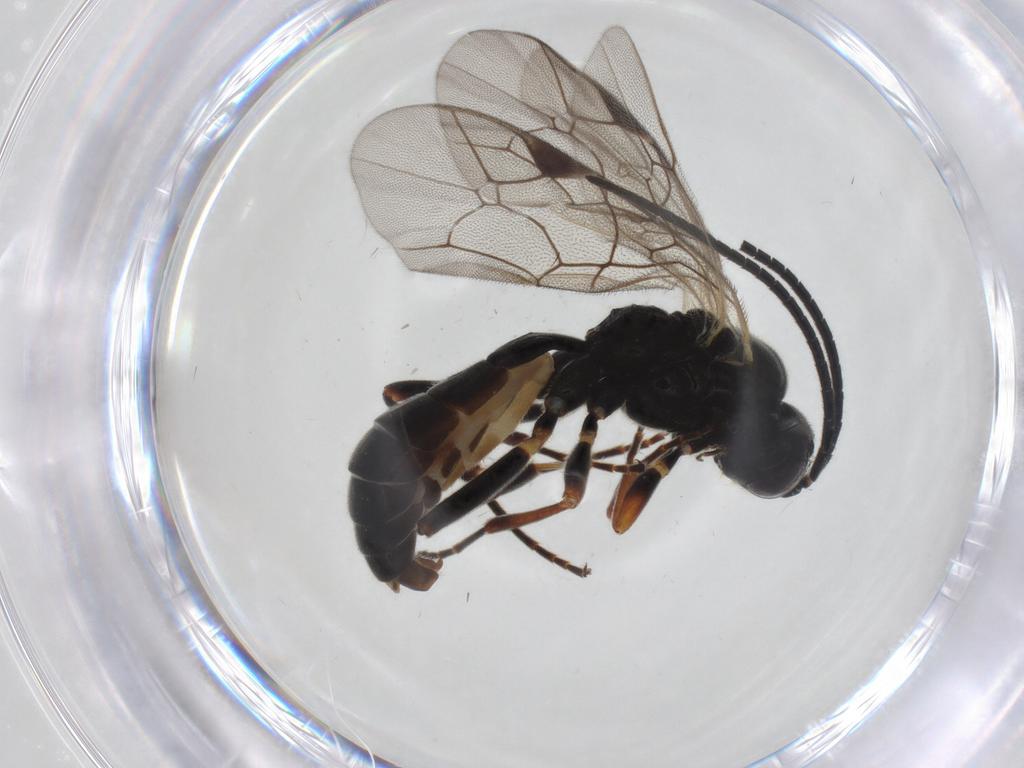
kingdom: Animalia
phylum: Arthropoda
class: Insecta
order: Hymenoptera
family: Ichneumonidae
